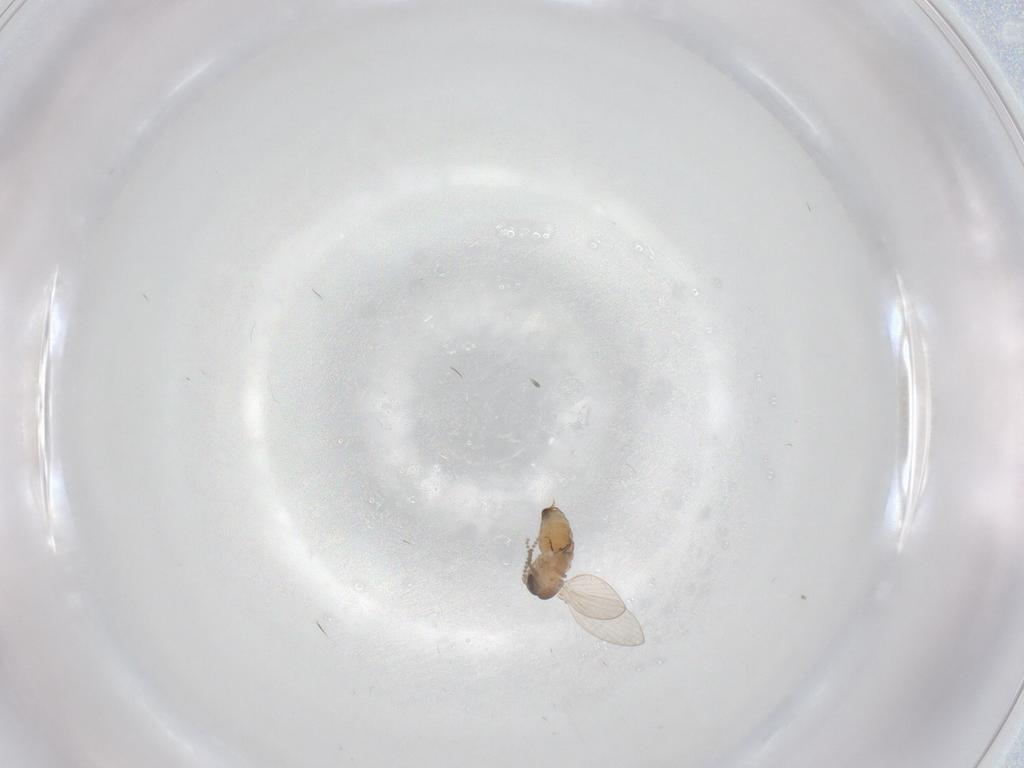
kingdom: Animalia
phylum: Arthropoda
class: Insecta
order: Diptera
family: Psychodidae
